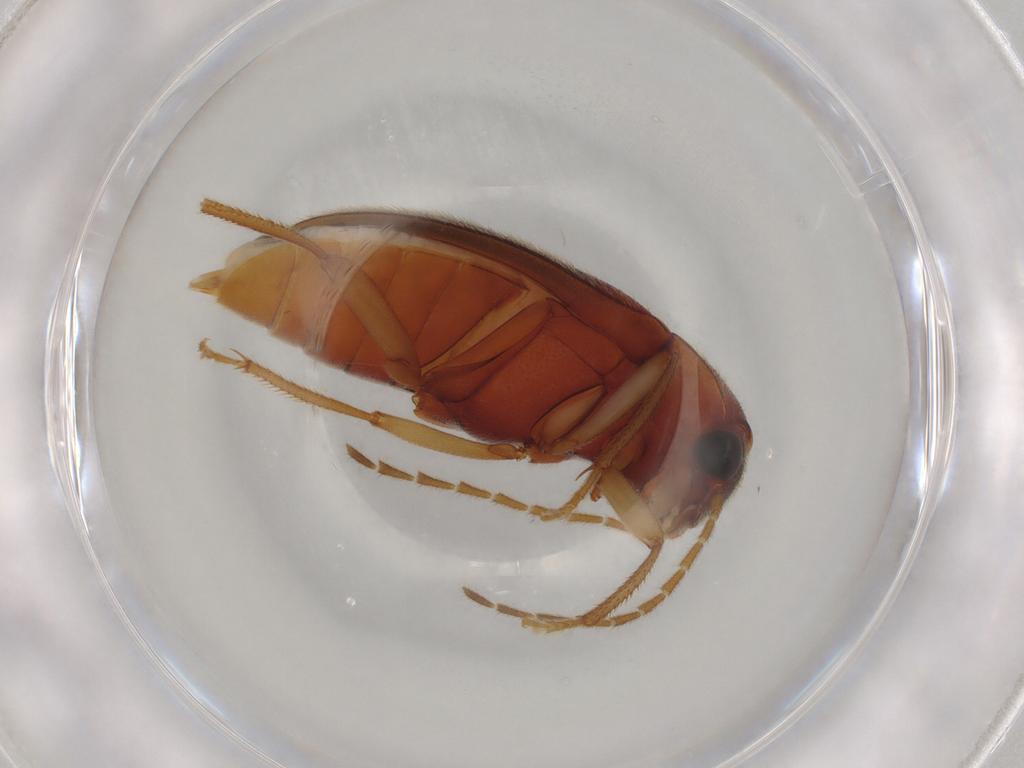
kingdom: Animalia
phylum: Arthropoda
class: Insecta
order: Coleoptera
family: Ptilodactylidae
